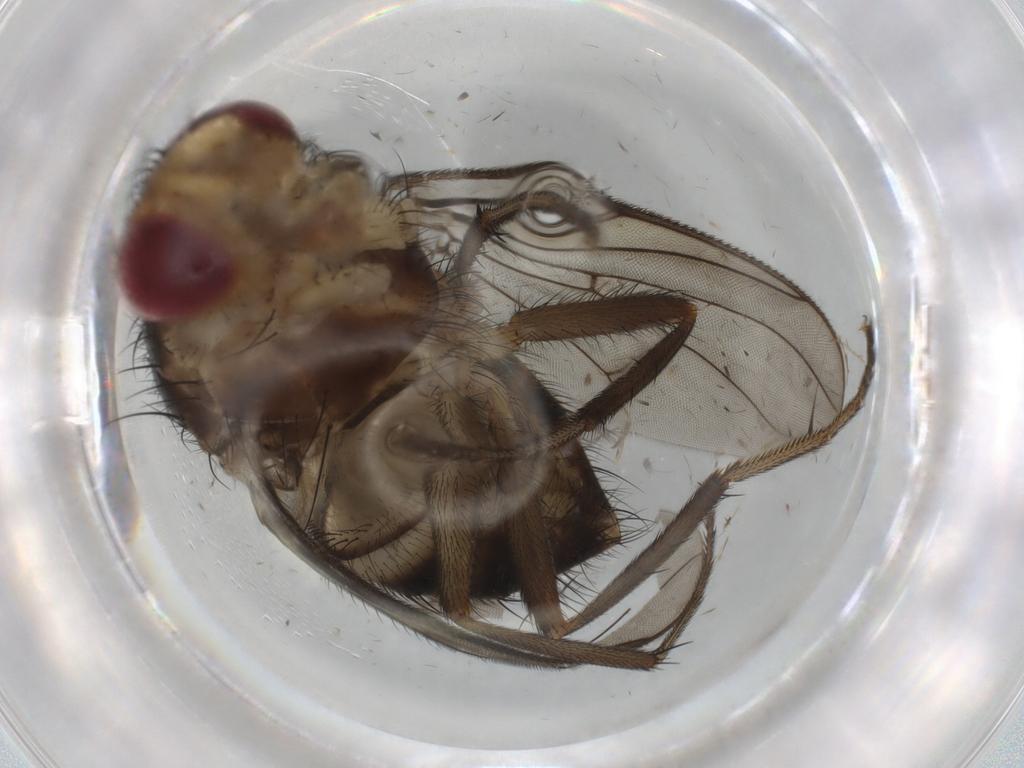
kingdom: Animalia
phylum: Arthropoda
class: Insecta
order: Diptera
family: Muscidae
